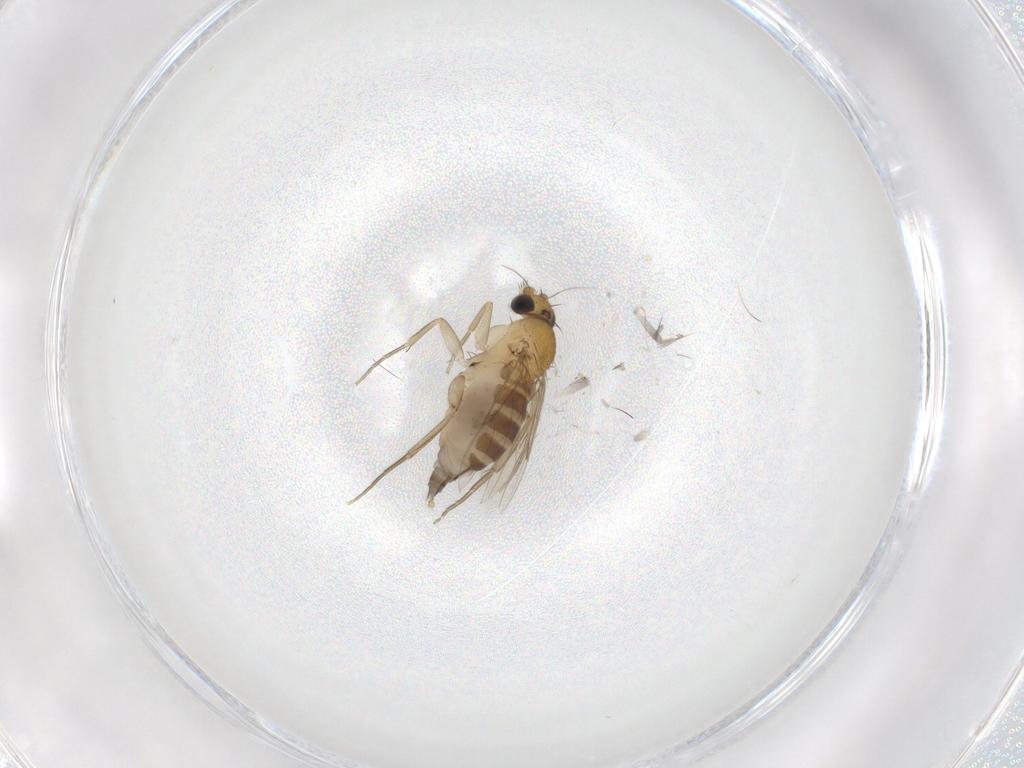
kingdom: Animalia
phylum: Arthropoda
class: Insecta
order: Diptera
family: Phoridae
